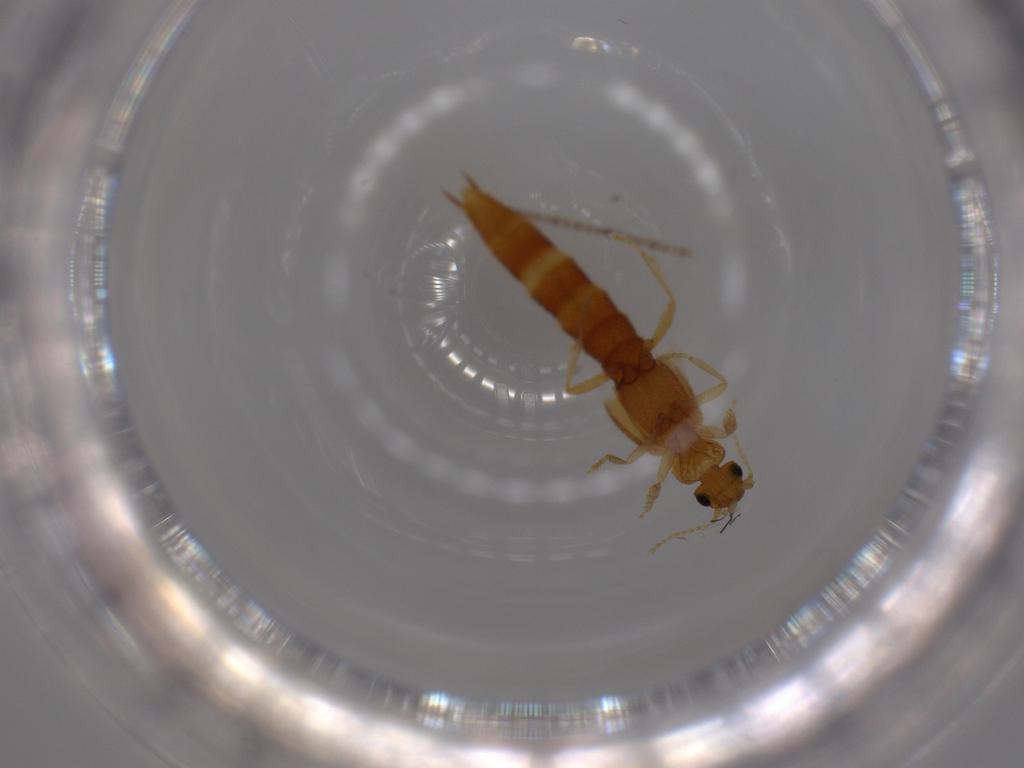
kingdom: Animalia
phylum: Arthropoda
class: Insecta
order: Coleoptera
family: Staphylinidae
